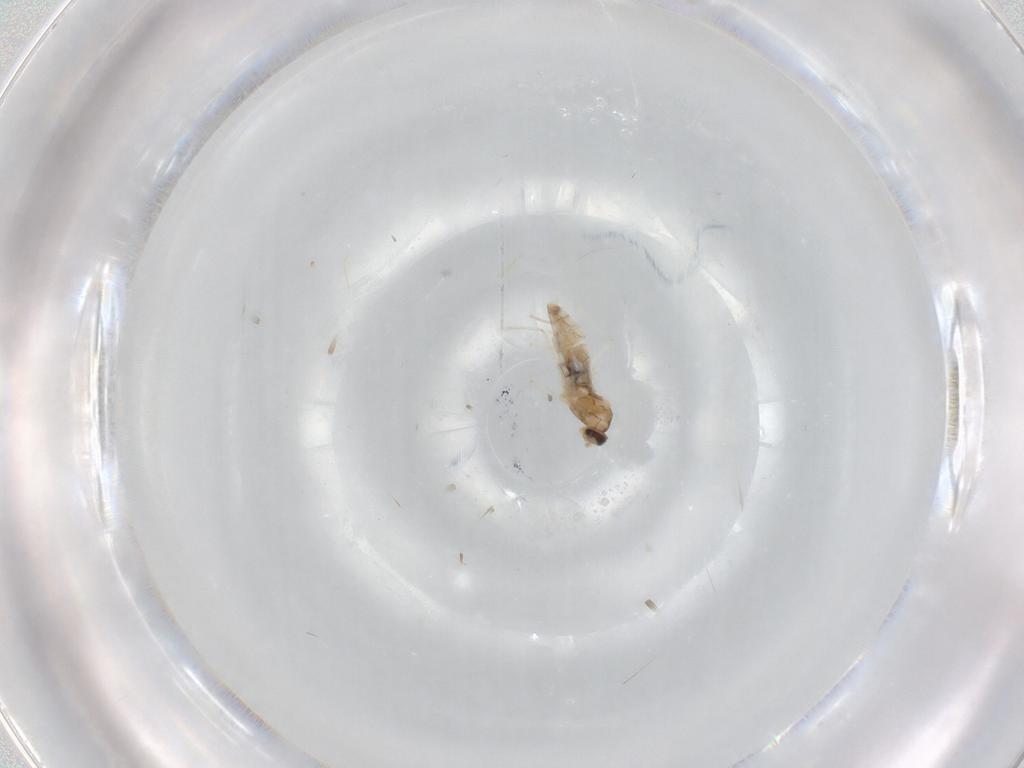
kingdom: Animalia
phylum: Arthropoda
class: Insecta
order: Diptera
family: Cecidomyiidae
